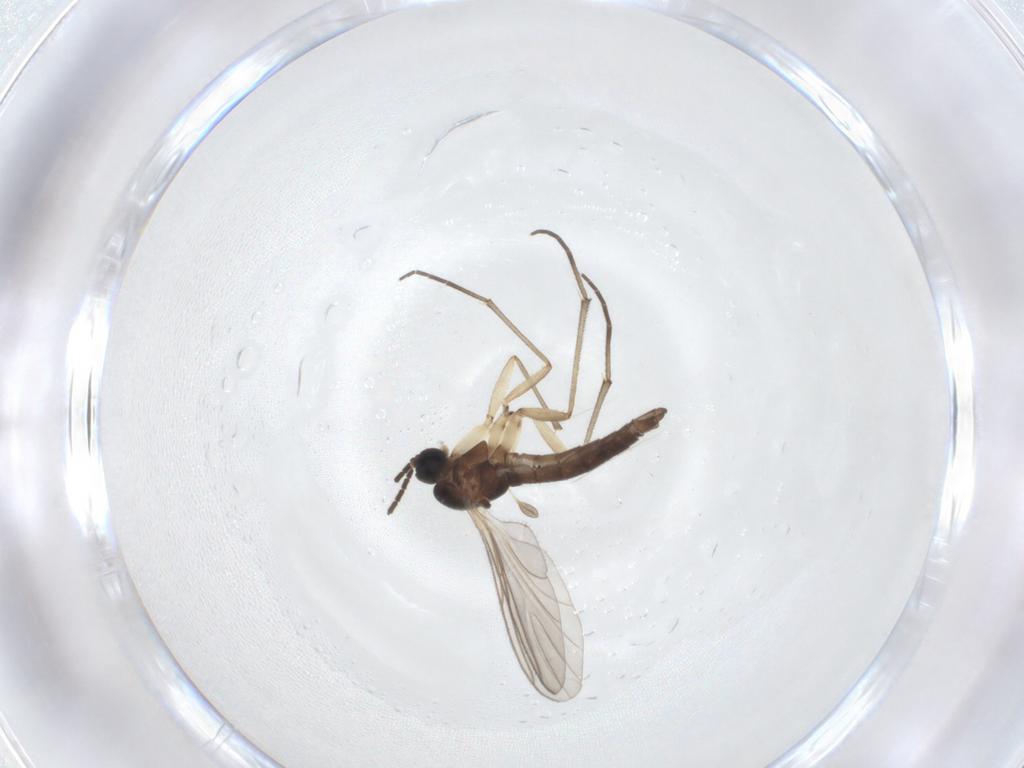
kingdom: Animalia
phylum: Arthropoda
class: Insecta
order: Diptera
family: Sciaridae
